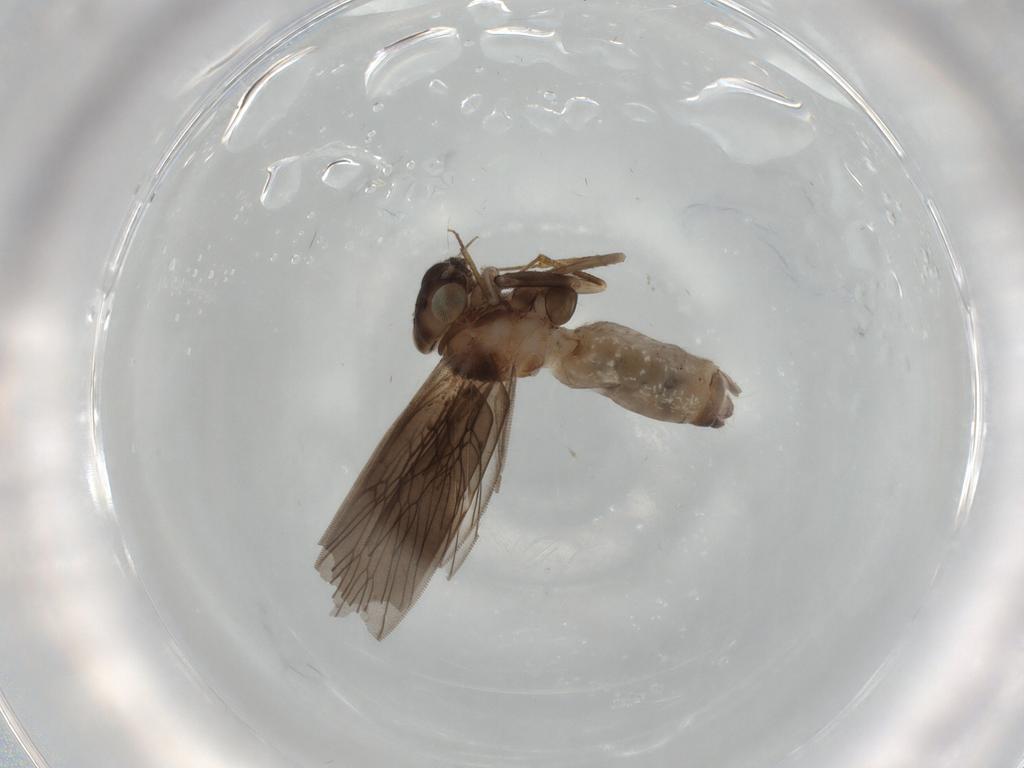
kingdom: Animalia
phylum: Arthropoda
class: Insecta
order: Psocodea
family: Lepidopsocidae
